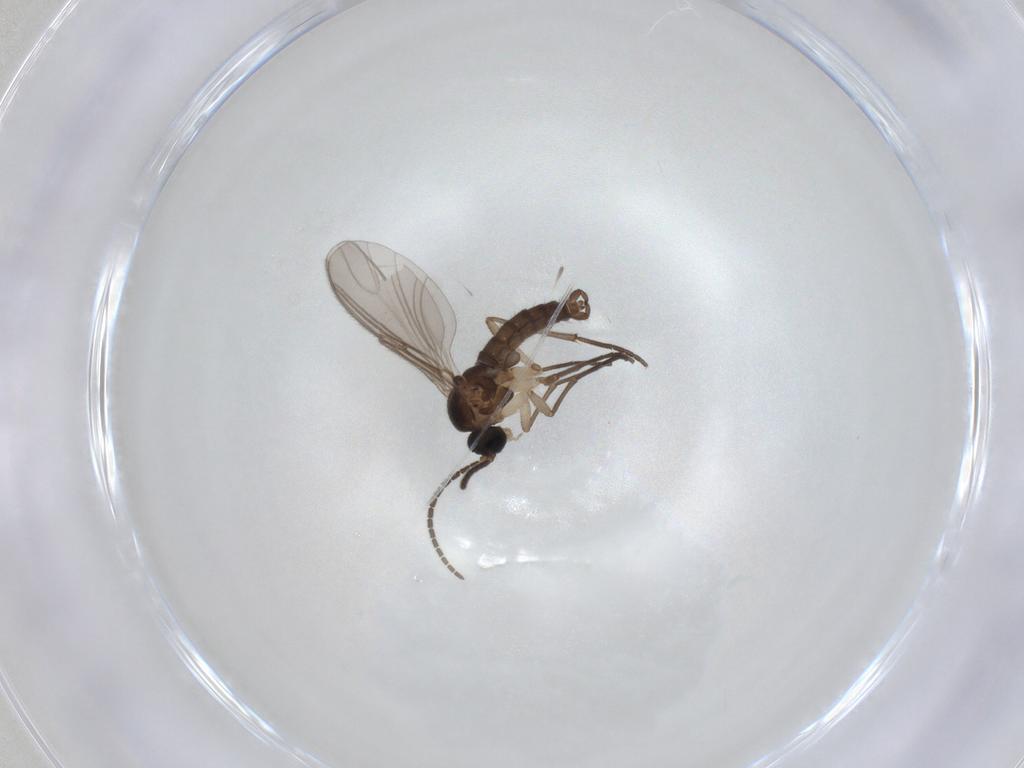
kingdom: Animalia
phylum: Arthropoda
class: Insecta
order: Diptera
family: Sciaridae
